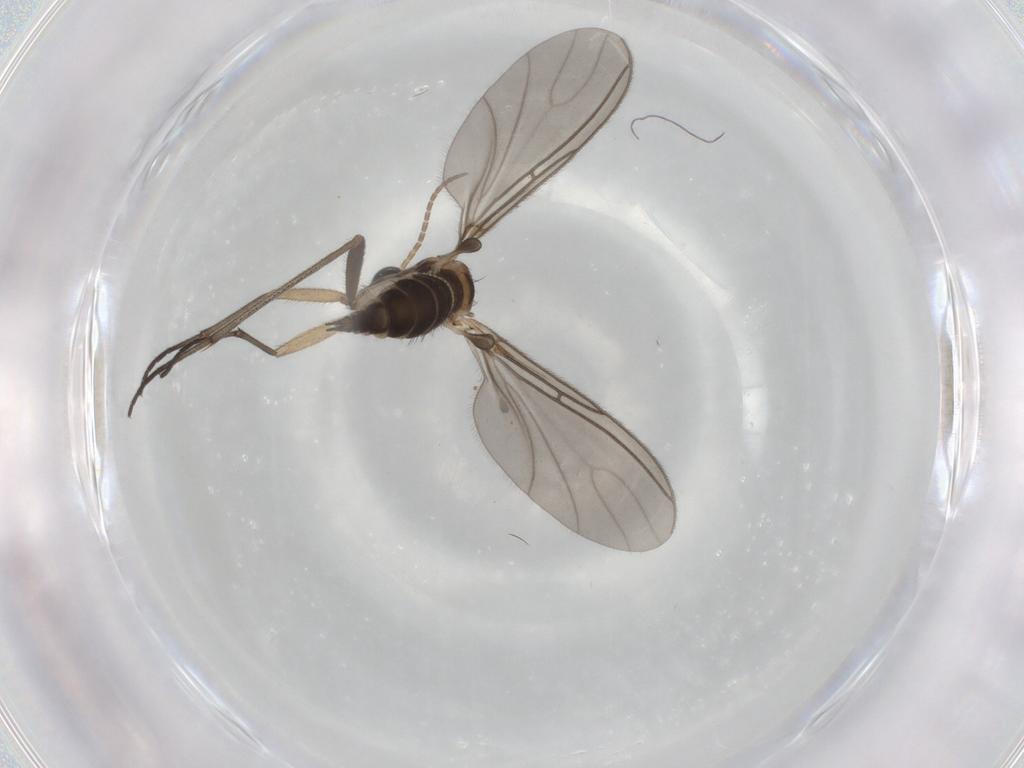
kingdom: Animalia
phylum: Arthropoda
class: Insecta
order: Diptera
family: Sciaridae
